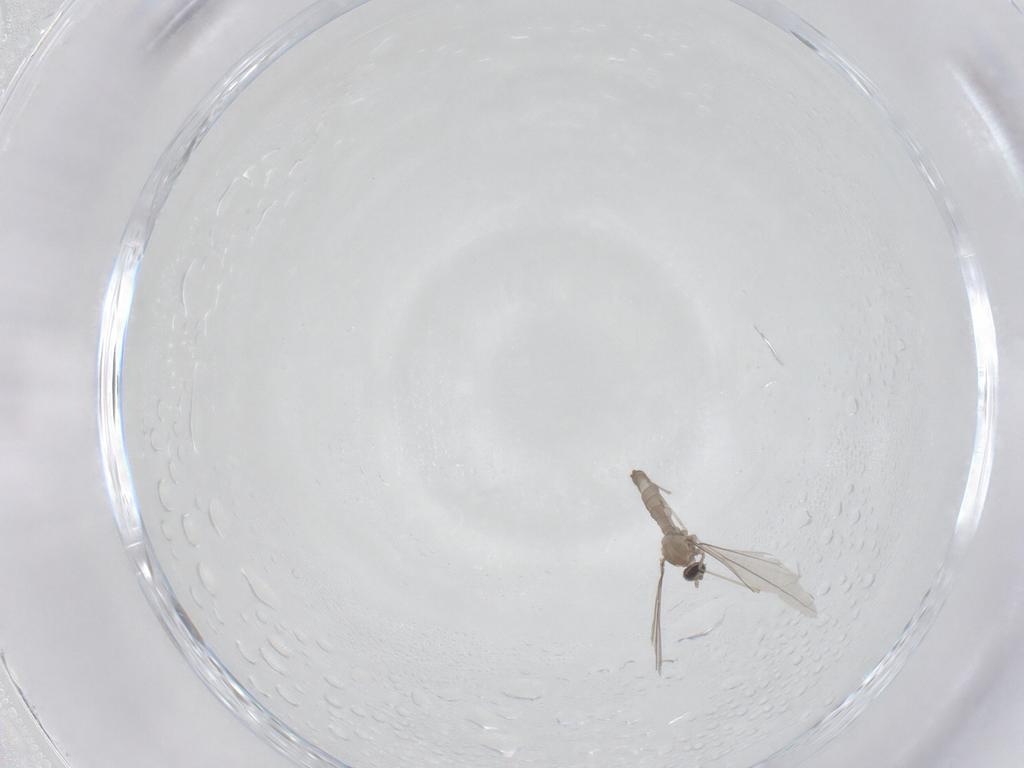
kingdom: Animalia
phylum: Arthropoda
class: Insecta
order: Diptera
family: Cecidomyiidae
